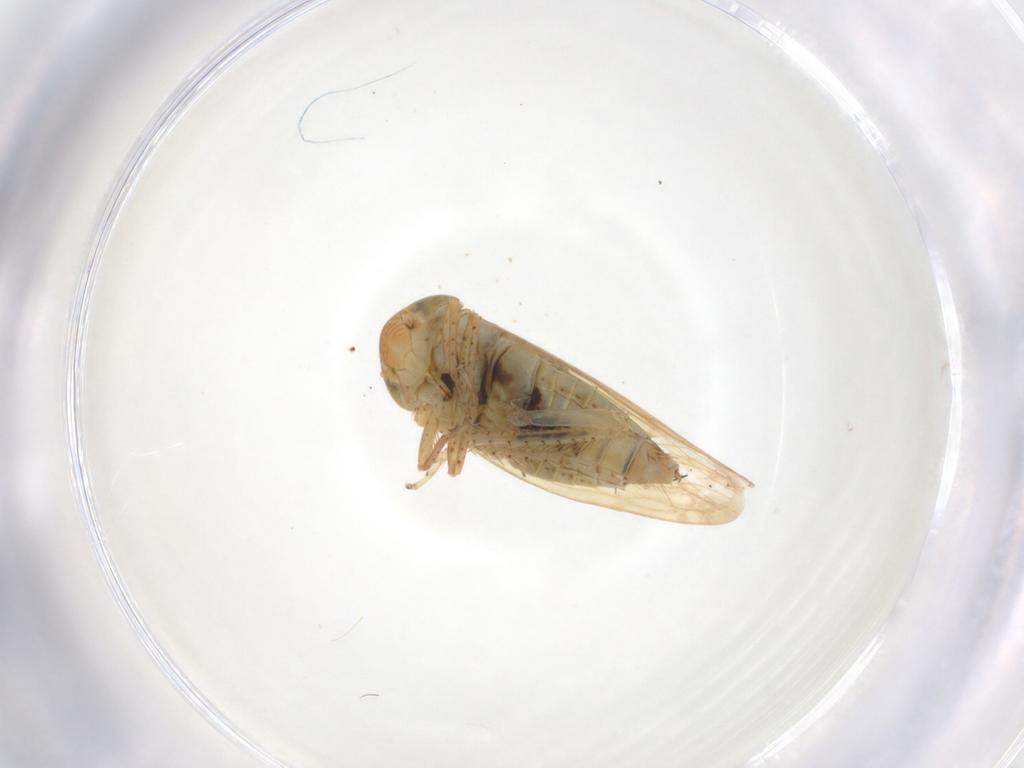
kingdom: Animalia
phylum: Arthropoda
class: Insecta
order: Hemiptera
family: Cicadellidae
